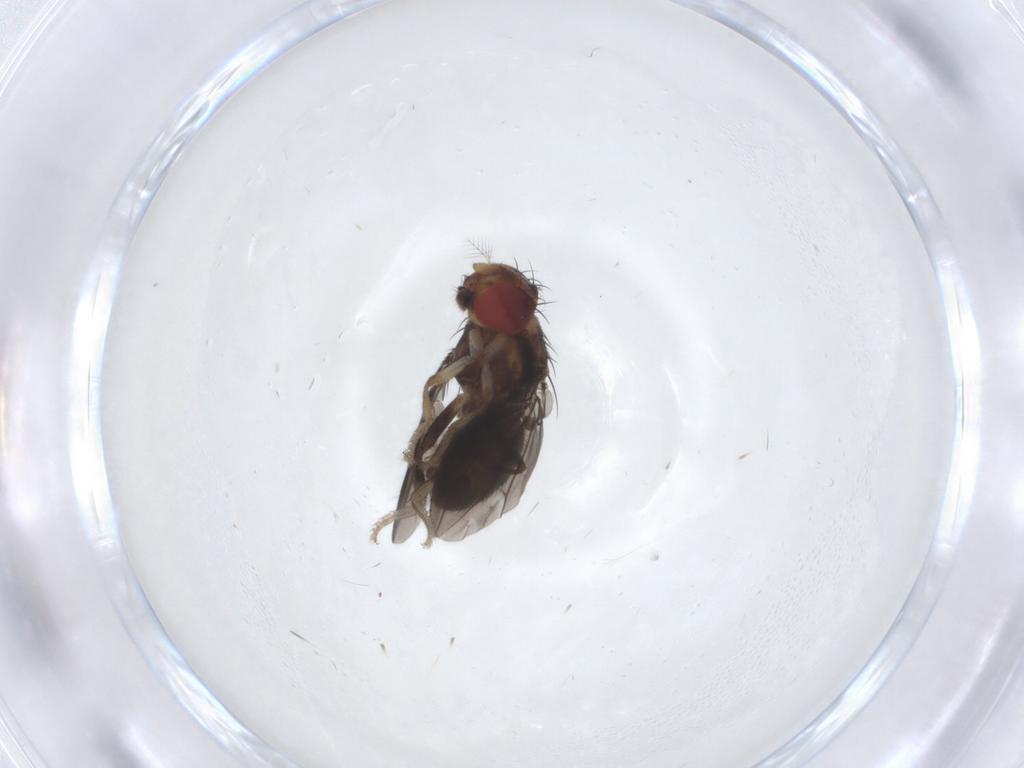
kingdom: Animalia
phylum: Arthropoda
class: Insecta
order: Diptera
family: Drosophilidae
